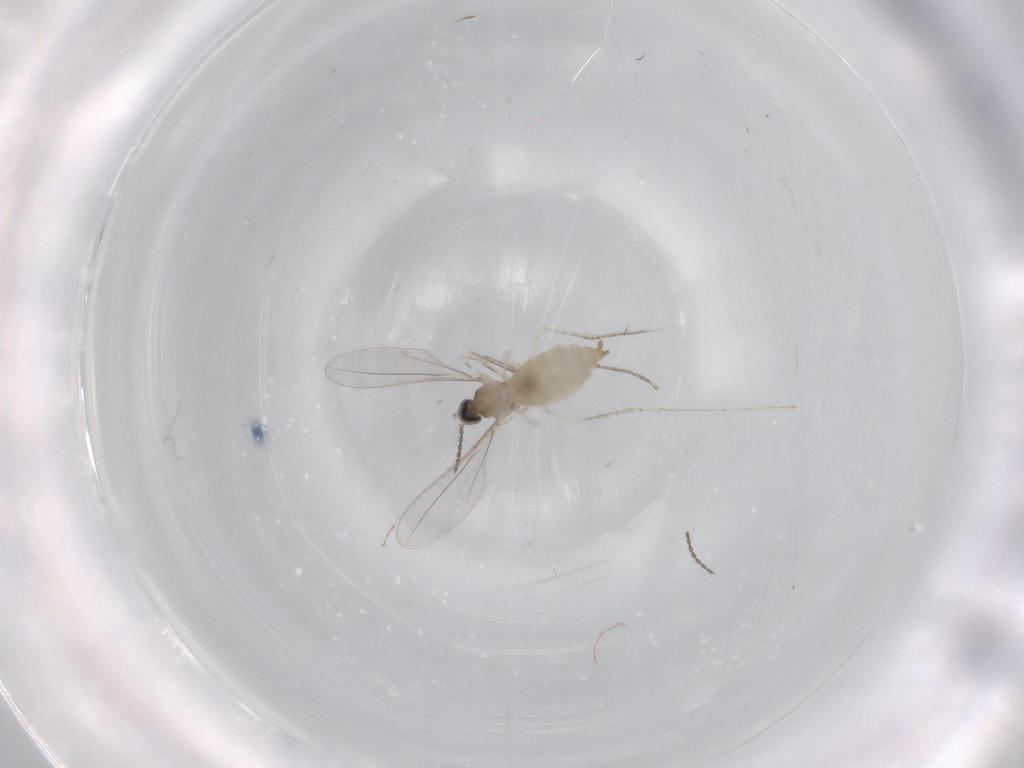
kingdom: Animalia
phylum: Arthropoda
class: Insecta
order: Diptera
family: Cecidomyiidae
